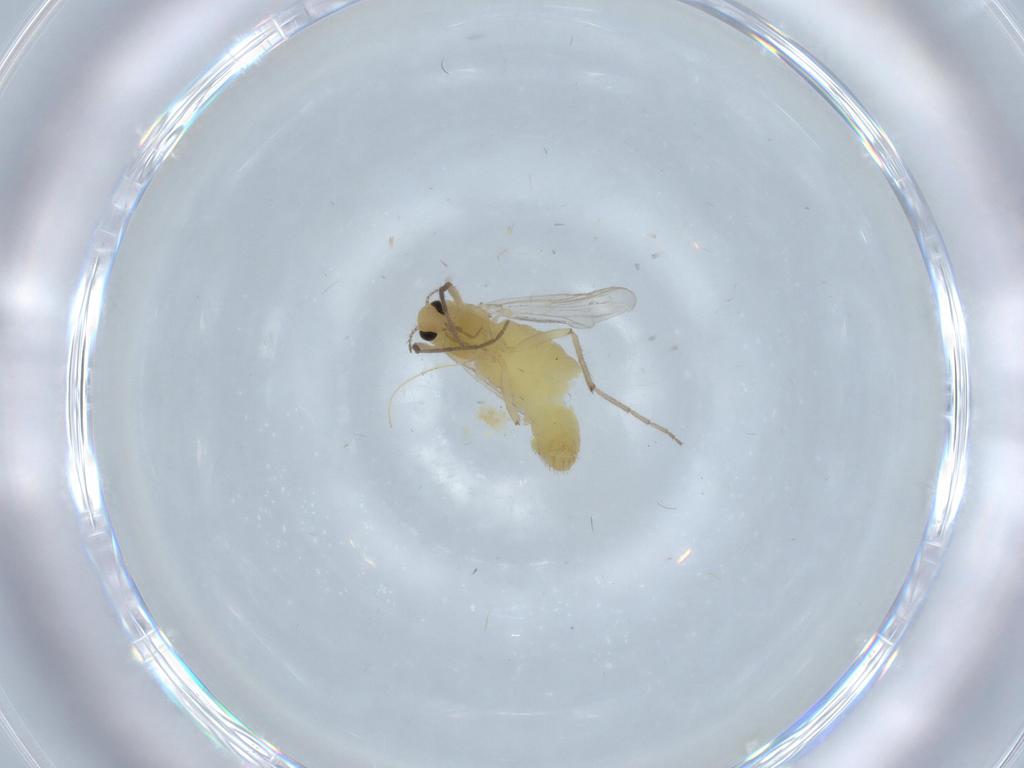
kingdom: Animalia
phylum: Arthropoda
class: Insecta
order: Diptera
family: Chironomidae
